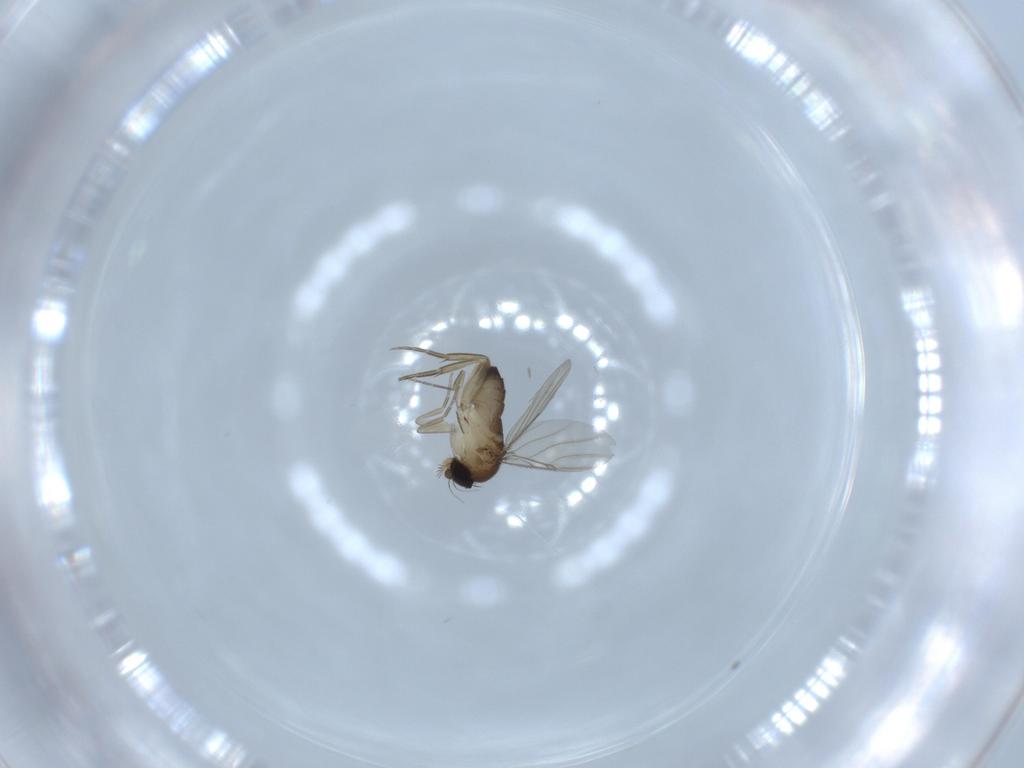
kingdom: Animalia
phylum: Arthropoda
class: Insecta
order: Diptera
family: Phoridae
